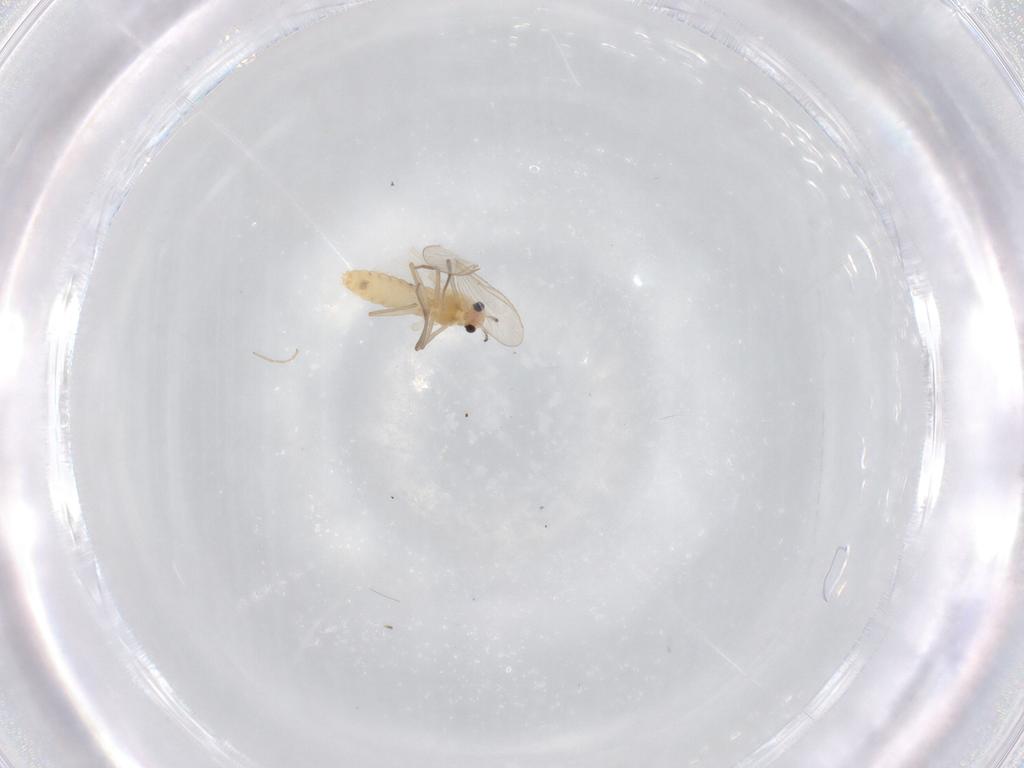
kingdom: Animalia
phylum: Arthropoda
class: Insecta
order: Diptera
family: Chironomidae
